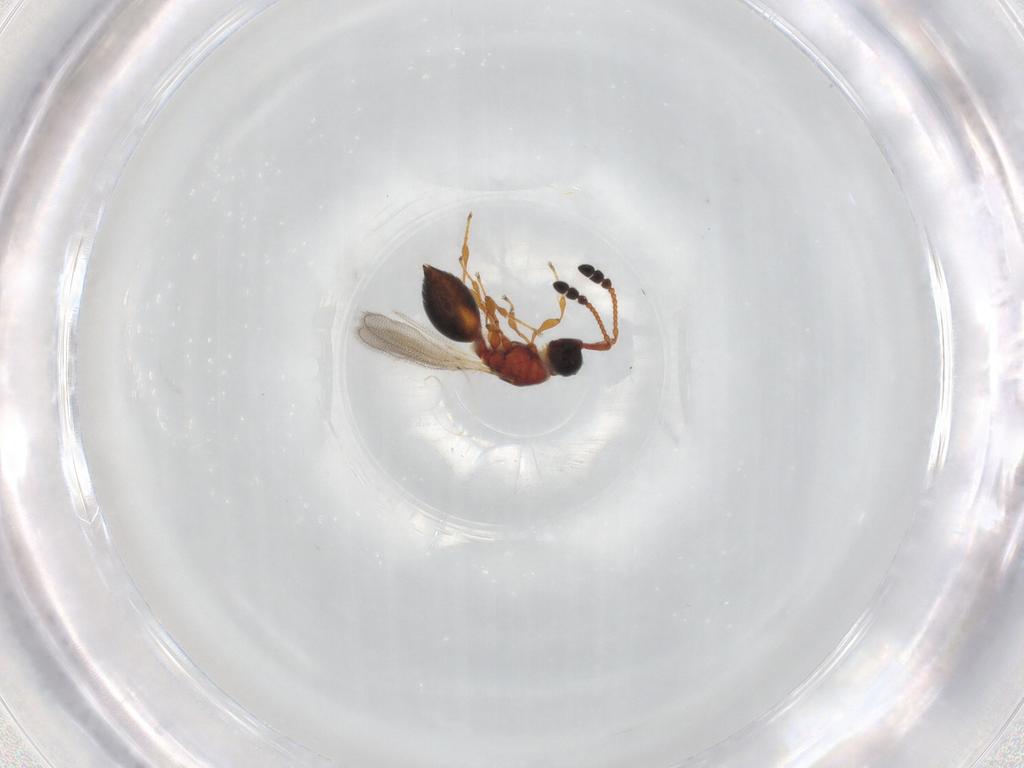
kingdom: Animalia
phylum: Arthropoda
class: Insecta
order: Hymenoptera
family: Diapriidae
